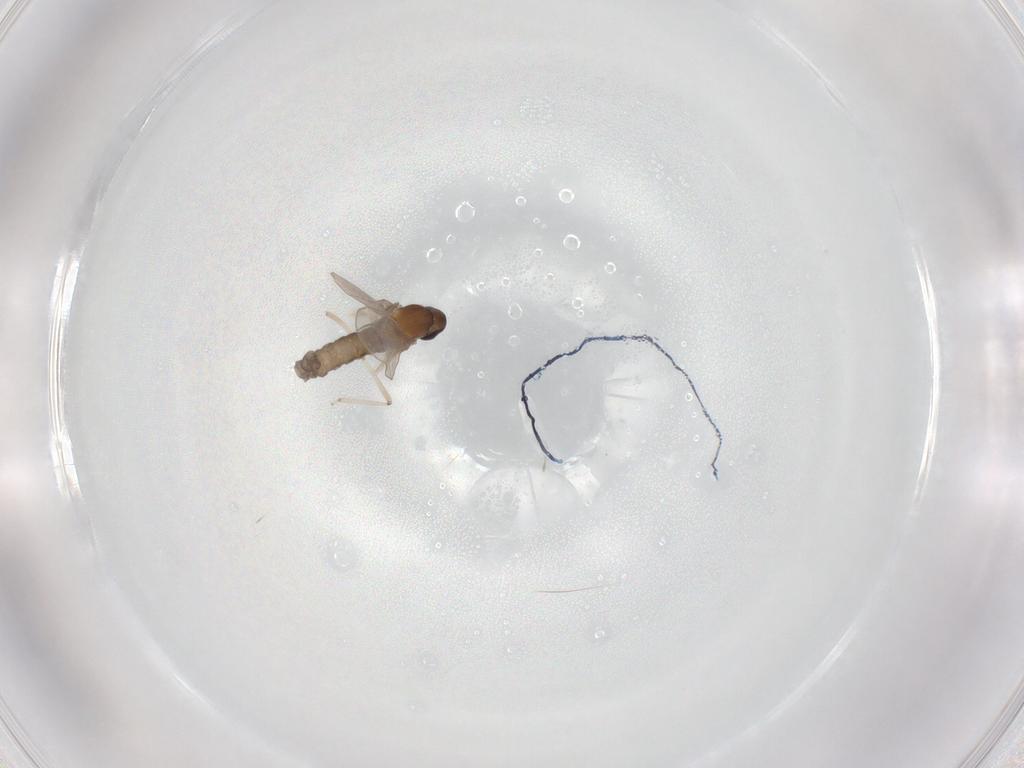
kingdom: Animalia
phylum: Arthropoda
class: Insecta
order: Diptera
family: Cecidomyiidae
